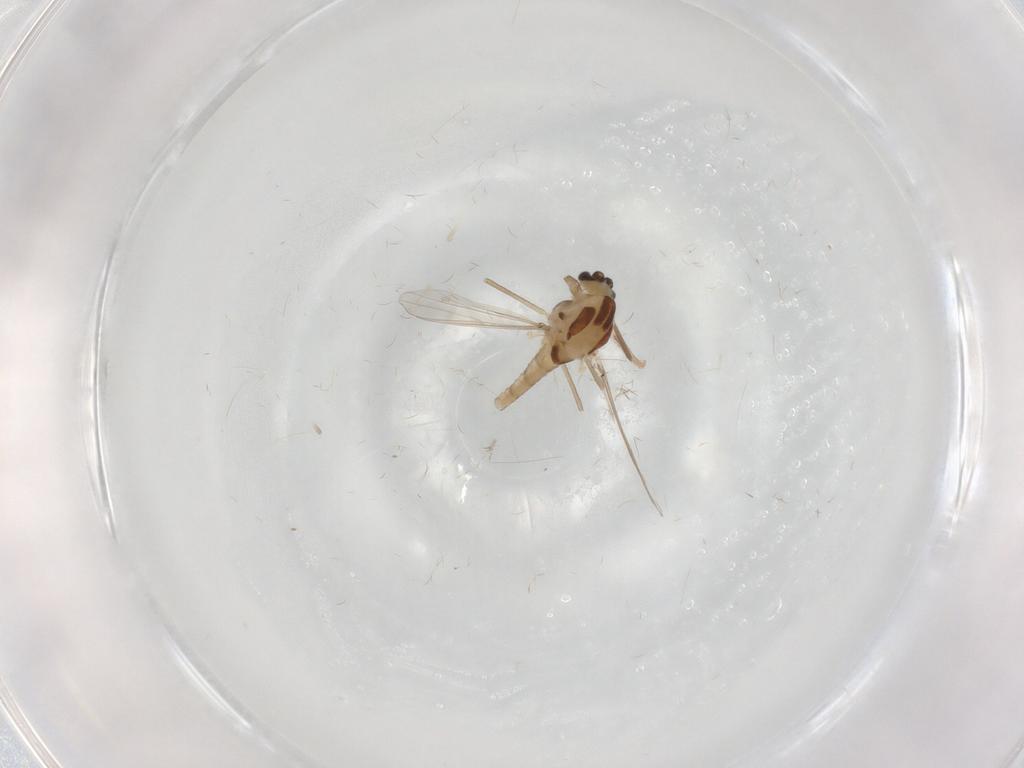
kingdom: Animalia
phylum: Arthropoda
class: Insecta
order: Diptera
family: Chironomidae
